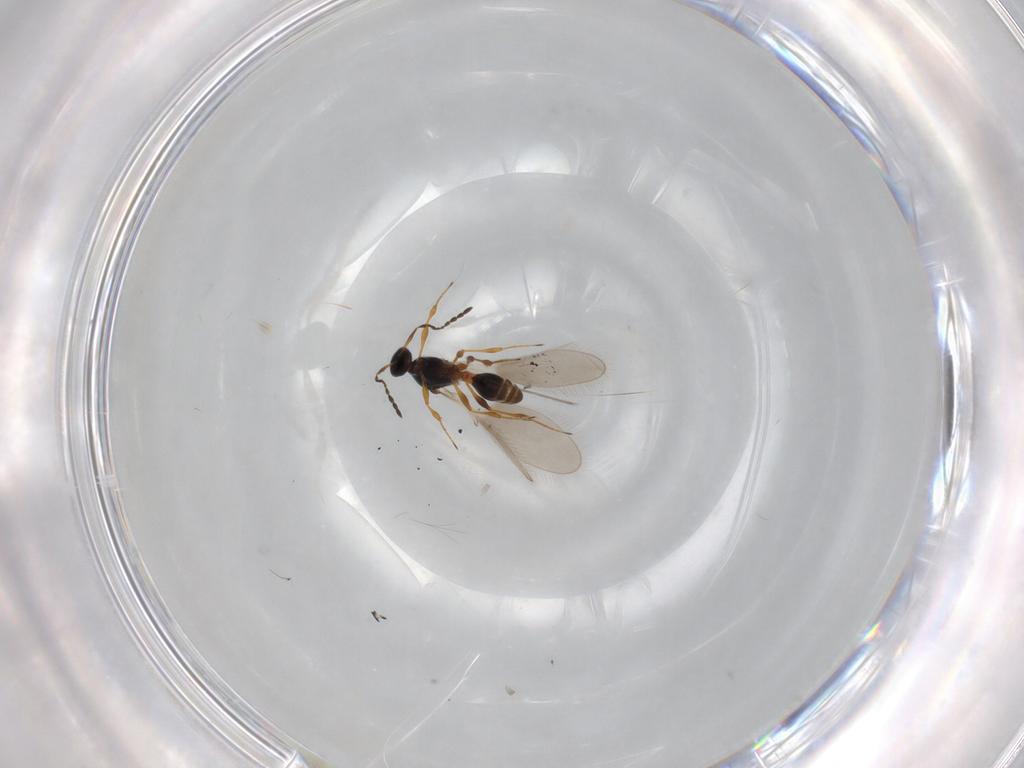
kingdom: Animalia
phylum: Arthropoda
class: Insecta
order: Hymenoptera
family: Platygastridae
